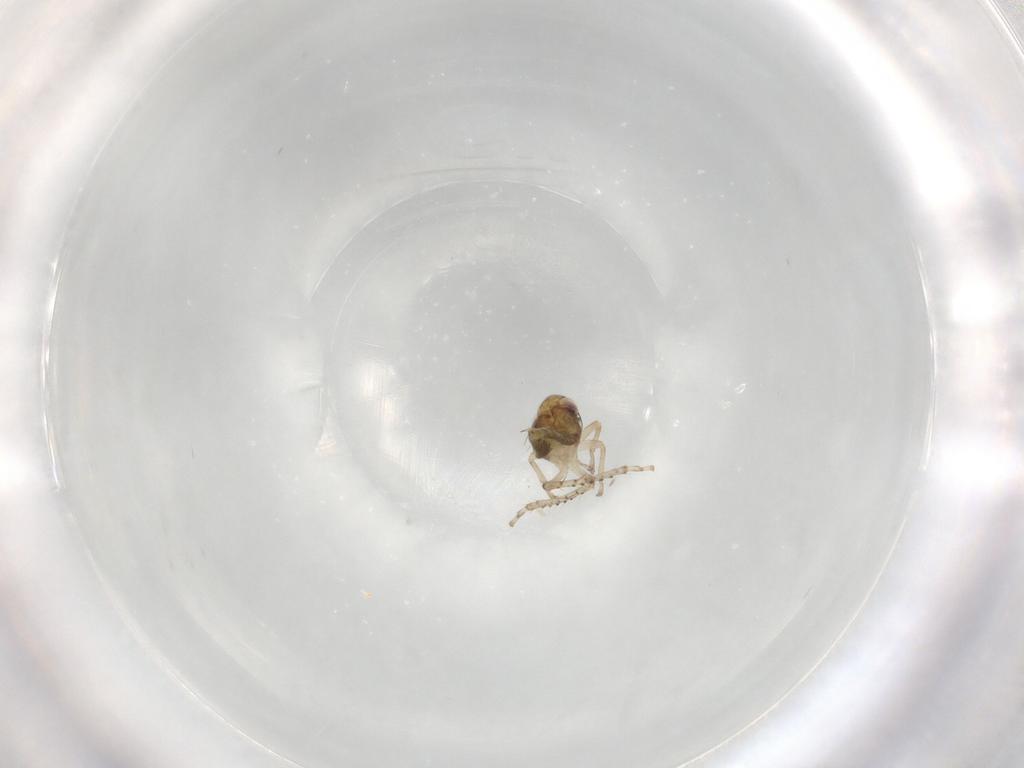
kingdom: Animalia
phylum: Arthropoda
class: Insecta
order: Hemiptera
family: Cicadellidae
